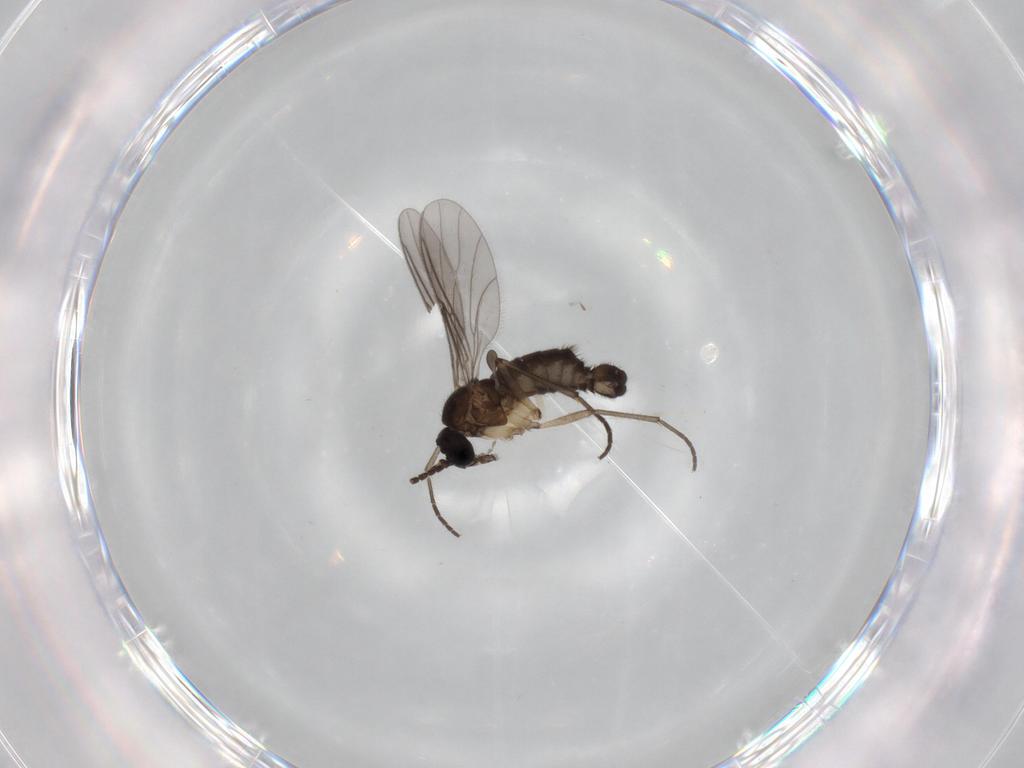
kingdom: Animalia
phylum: Arthropoda
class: Insecta
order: Diptera
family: Sciaridae
